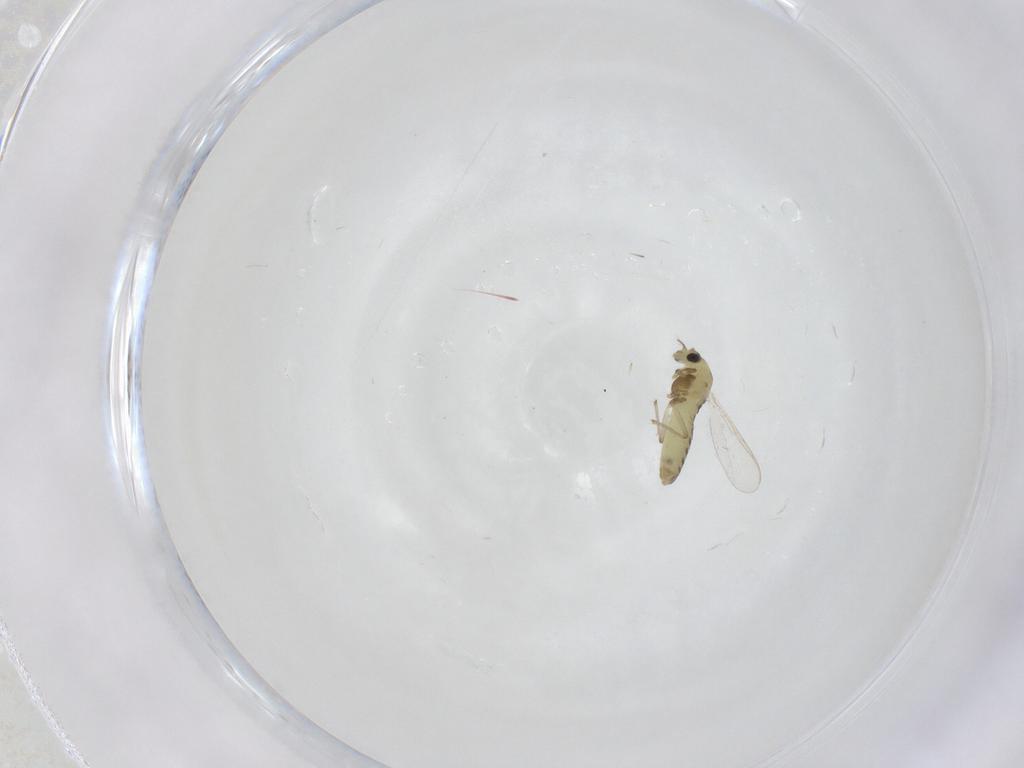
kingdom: Animalia
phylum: Arthropoda
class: Insecta
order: Diptera
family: Chironomidae
